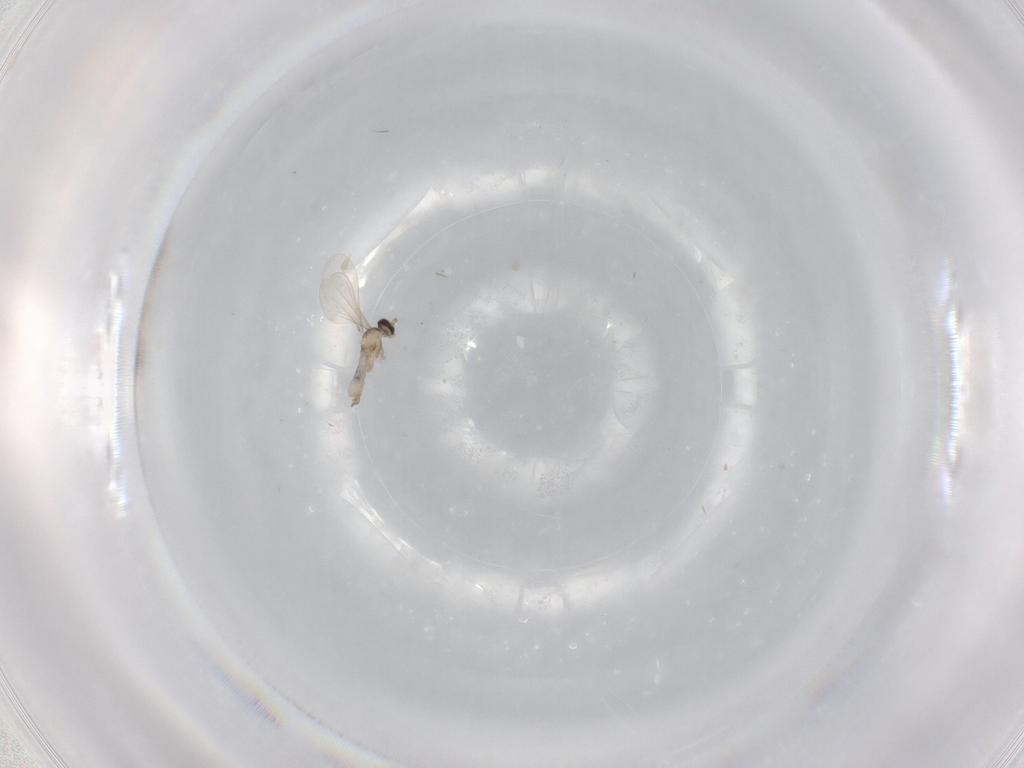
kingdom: Animalia
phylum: Arthropoda
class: Insecta
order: Diptera
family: Cecidomyiidae
